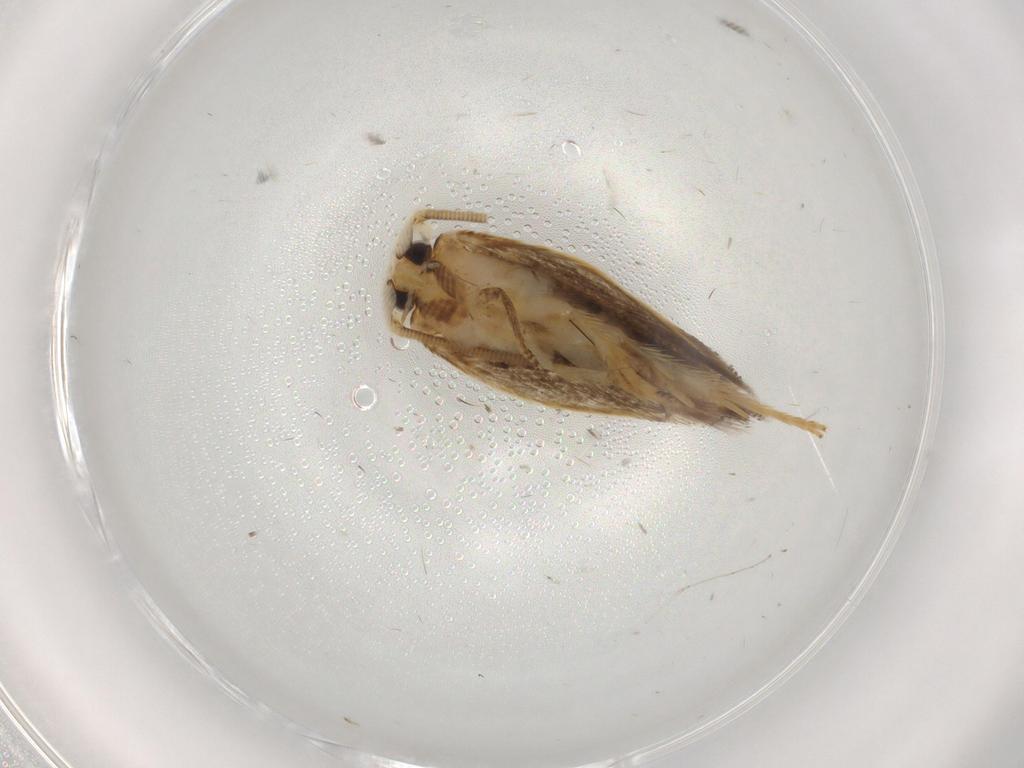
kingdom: Animalia
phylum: Arthropoda
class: Insecta
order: Lepidoptera
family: Opostegidae
